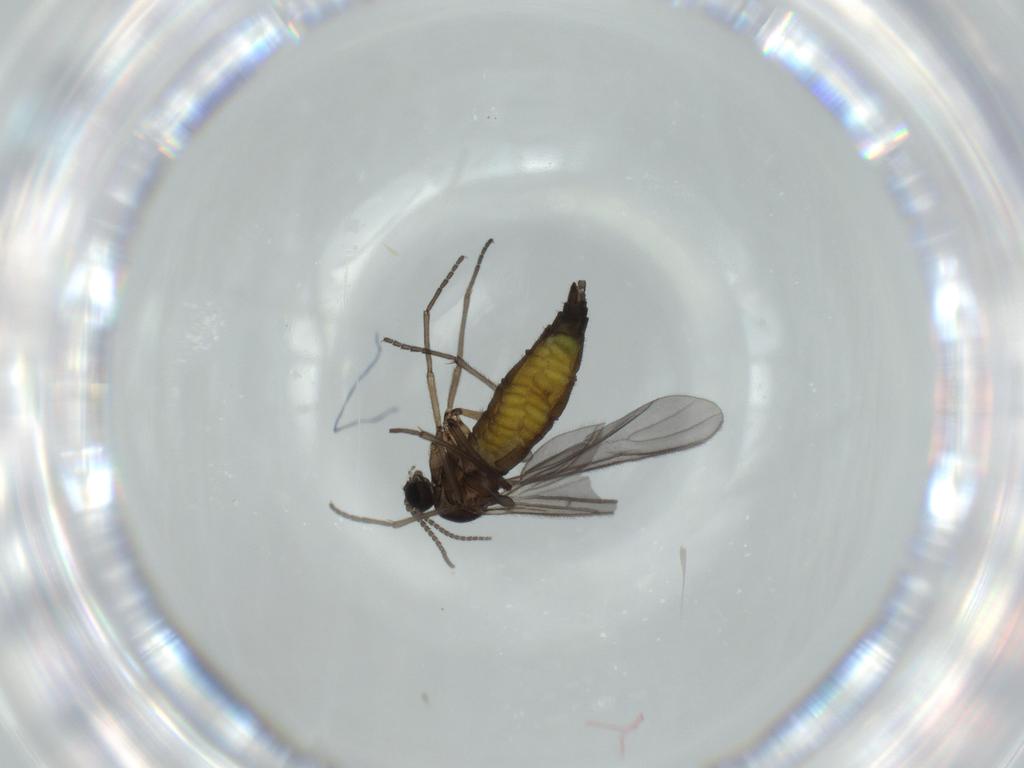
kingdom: Animalia
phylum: Arthropoda
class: Insecta
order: Diptera
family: Sciaridae
